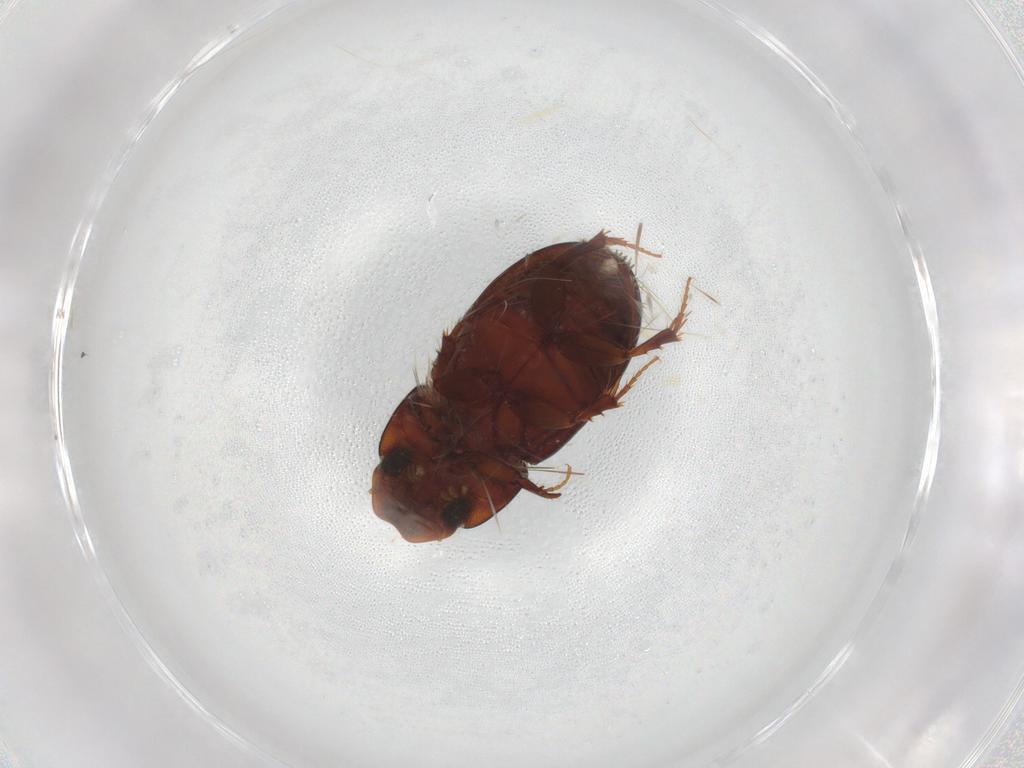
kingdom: Animalia
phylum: Arthropoda
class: Insecta
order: Coleoptera
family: Scarabaeidae
